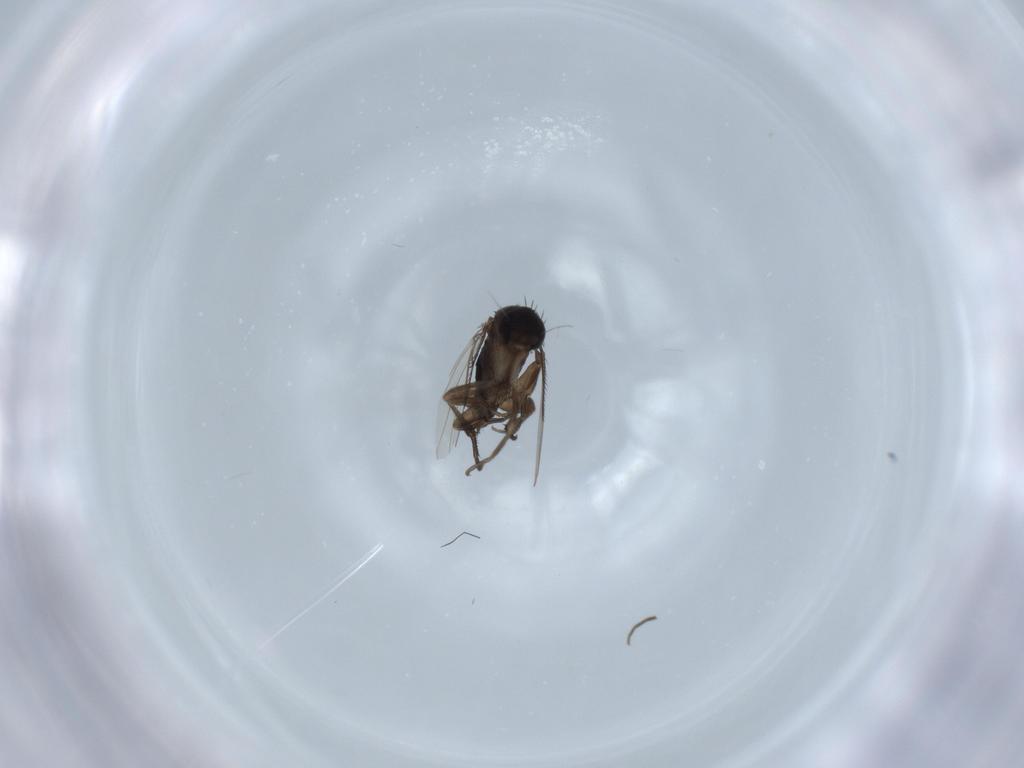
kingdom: Animalia
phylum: Arthropoda
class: Insecta
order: Diptera
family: Phoridae
